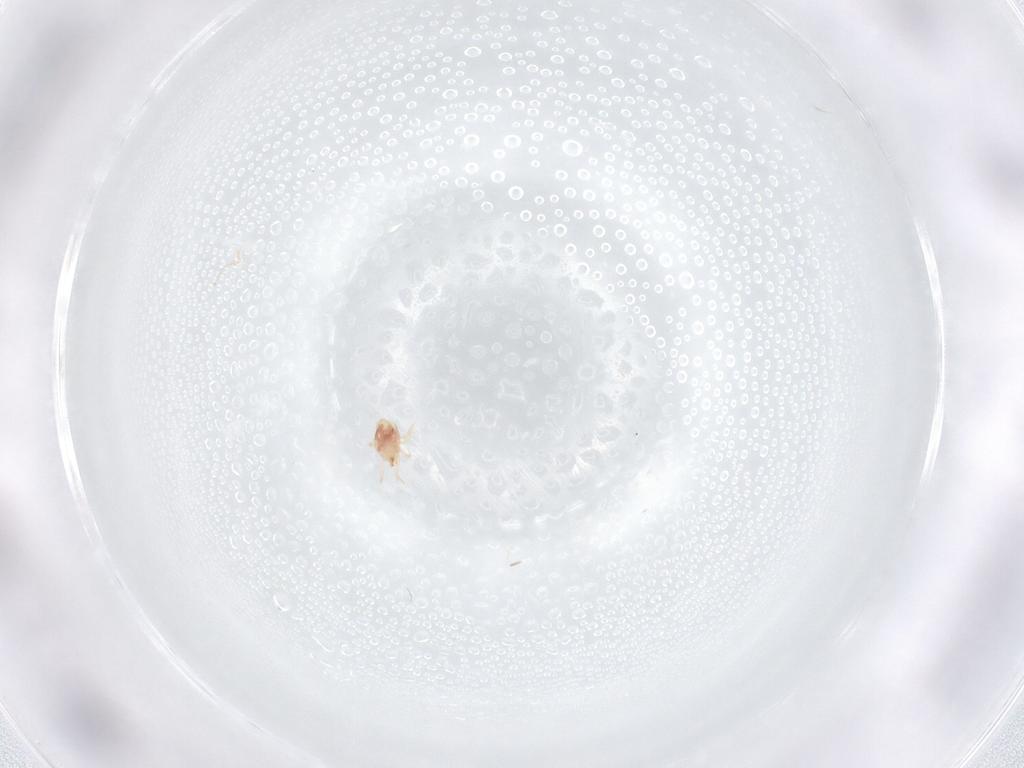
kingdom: Animalia
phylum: Arthropoda
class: Arachnida
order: Mesostigmata
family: Phytoseiidae
